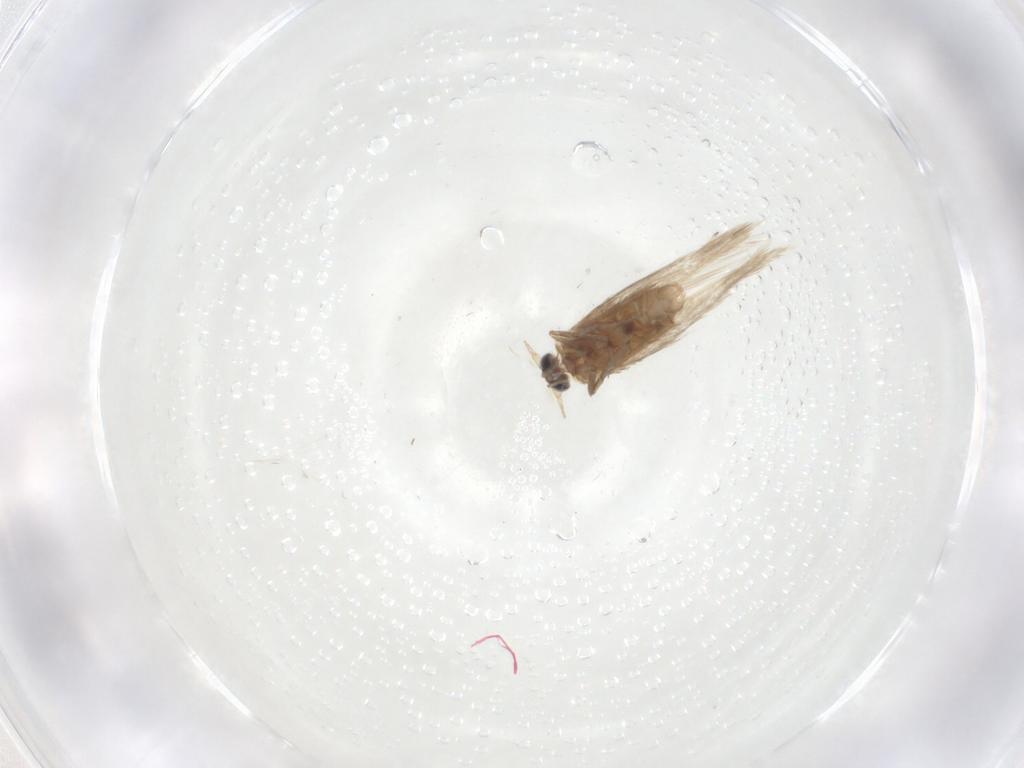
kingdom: Animalia
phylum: Arthropoda
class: Insecta
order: Lepidoptera
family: Nepticulidae
